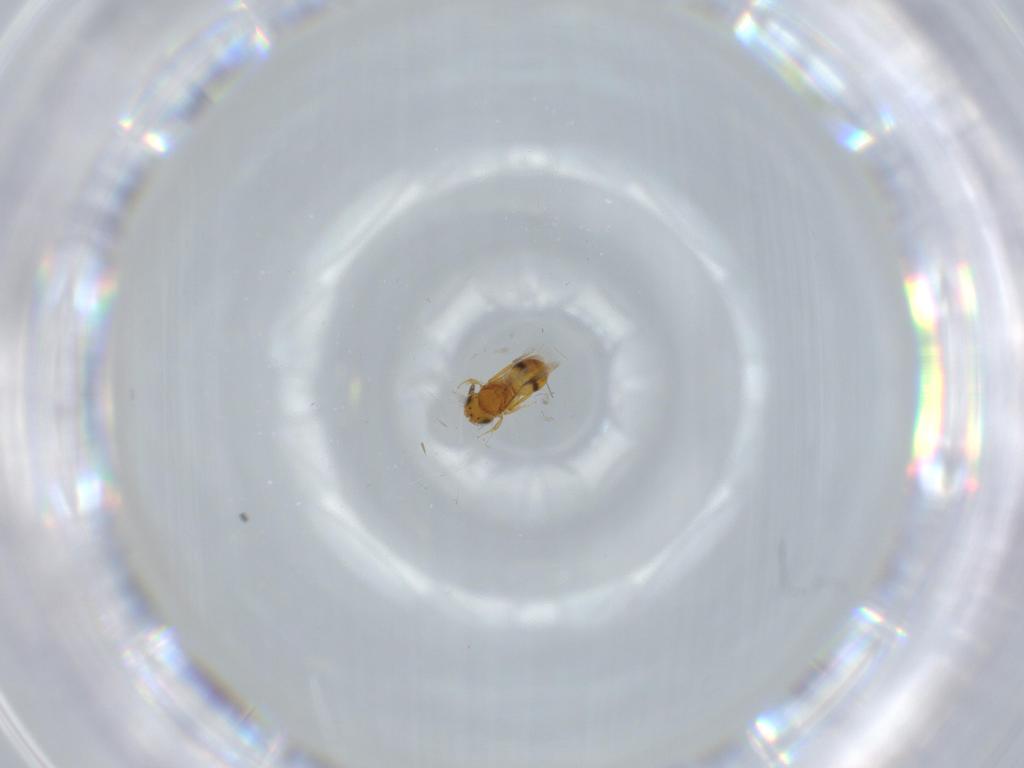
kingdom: Animalia
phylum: Arthropoda
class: Insecta
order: Hymenoptera
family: Scelionidae
